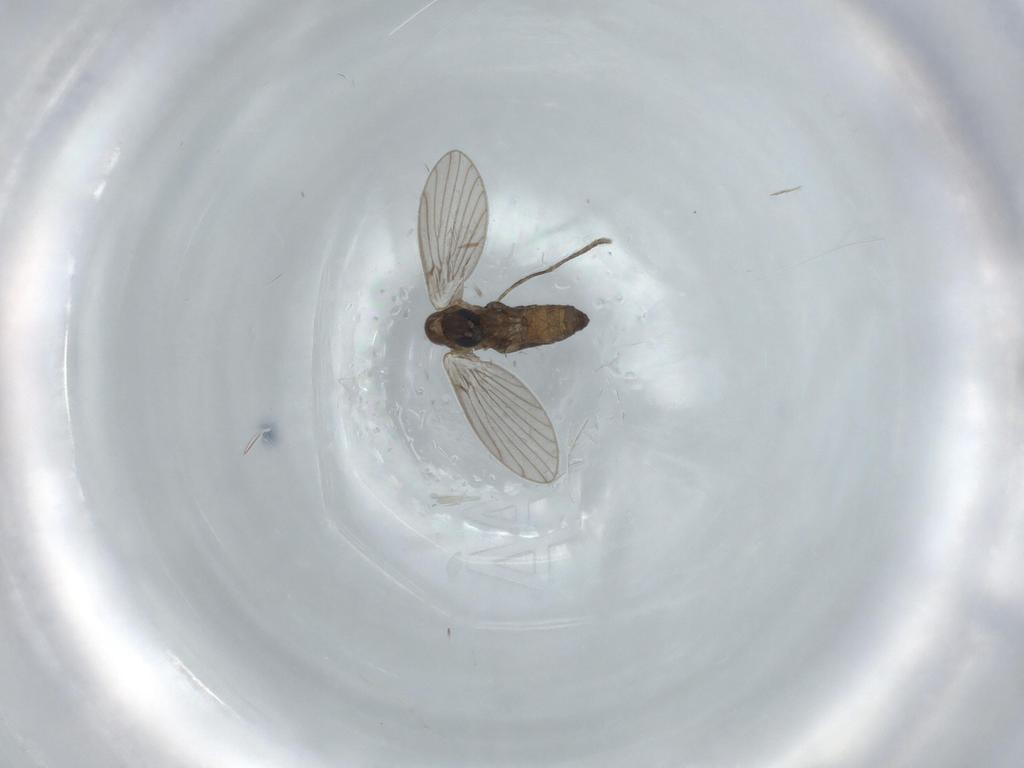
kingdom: Animalia
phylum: Arthropoda
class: Insecta
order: Diptera
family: Psychodidae
